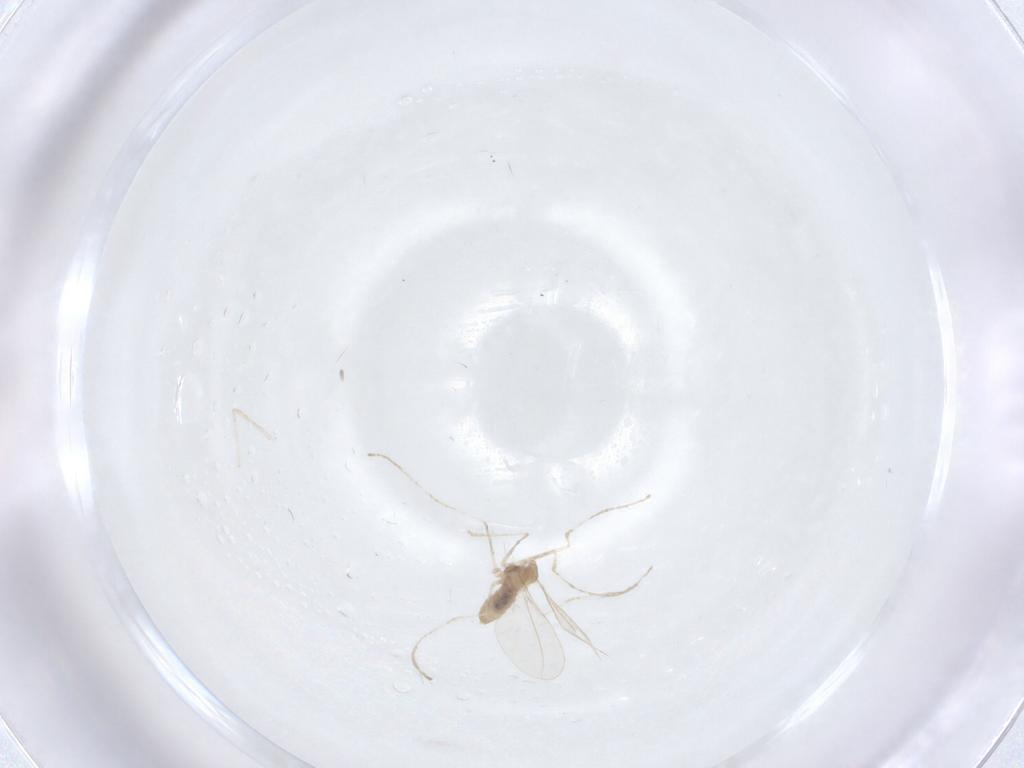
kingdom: Animalia
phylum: Arthropoda
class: Insecta
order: Diptera
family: Cecidomyiidae
